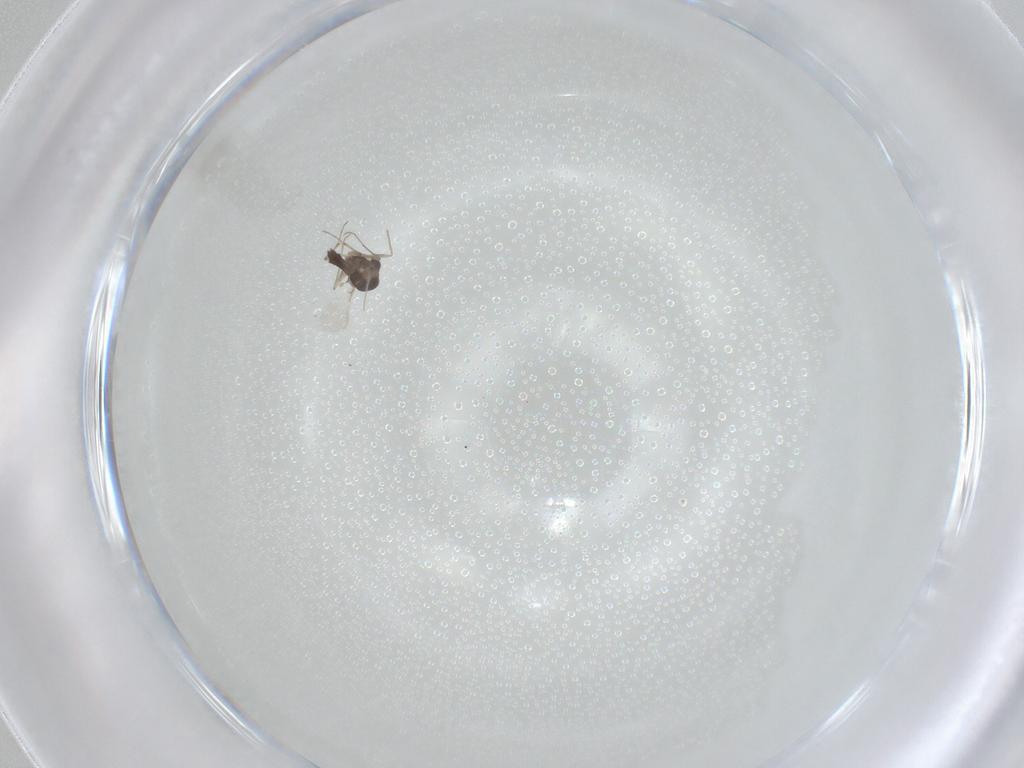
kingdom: Animalia
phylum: Arthropoda
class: Insecta
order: Diptera
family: Chironomidae
